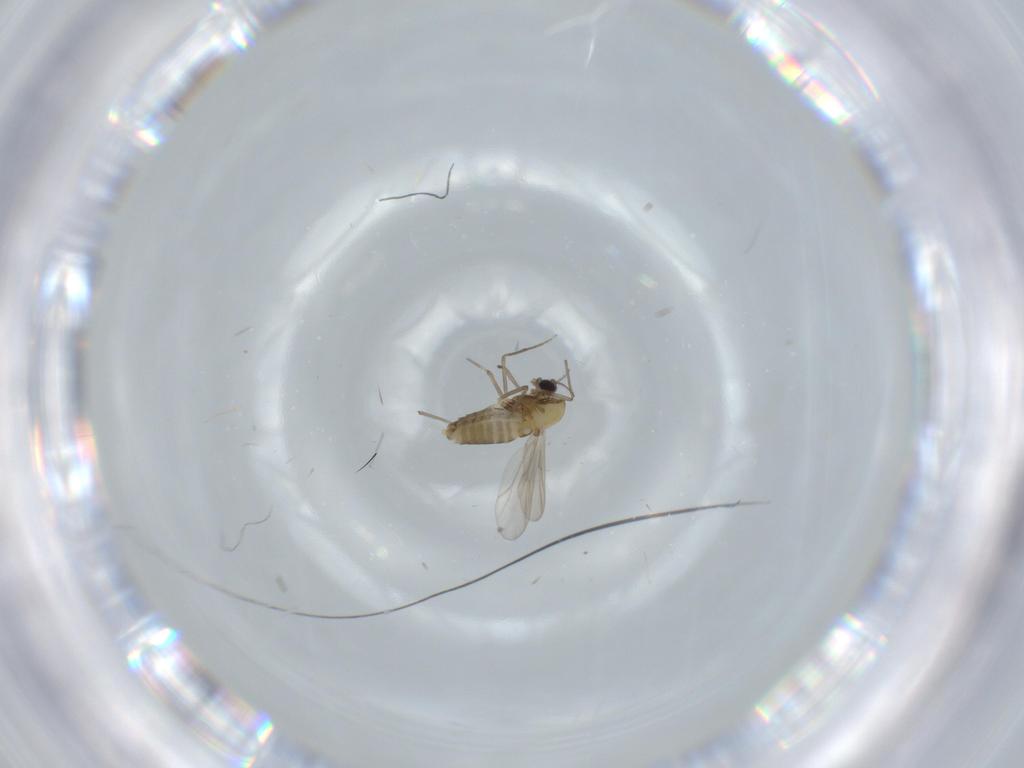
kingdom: Animalia
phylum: Arthropoda
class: Insecta
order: Diptera
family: Chironomidae
